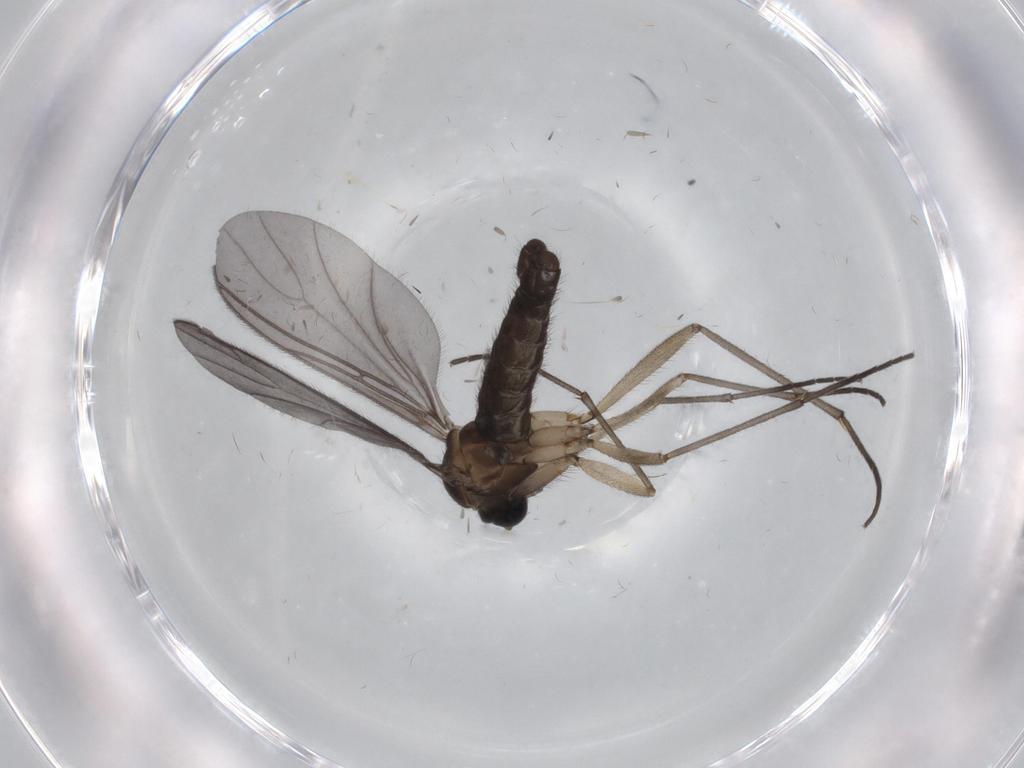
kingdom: Animalia
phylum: Arthropoda
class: Insecta
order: Diptera
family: Sciaridae
